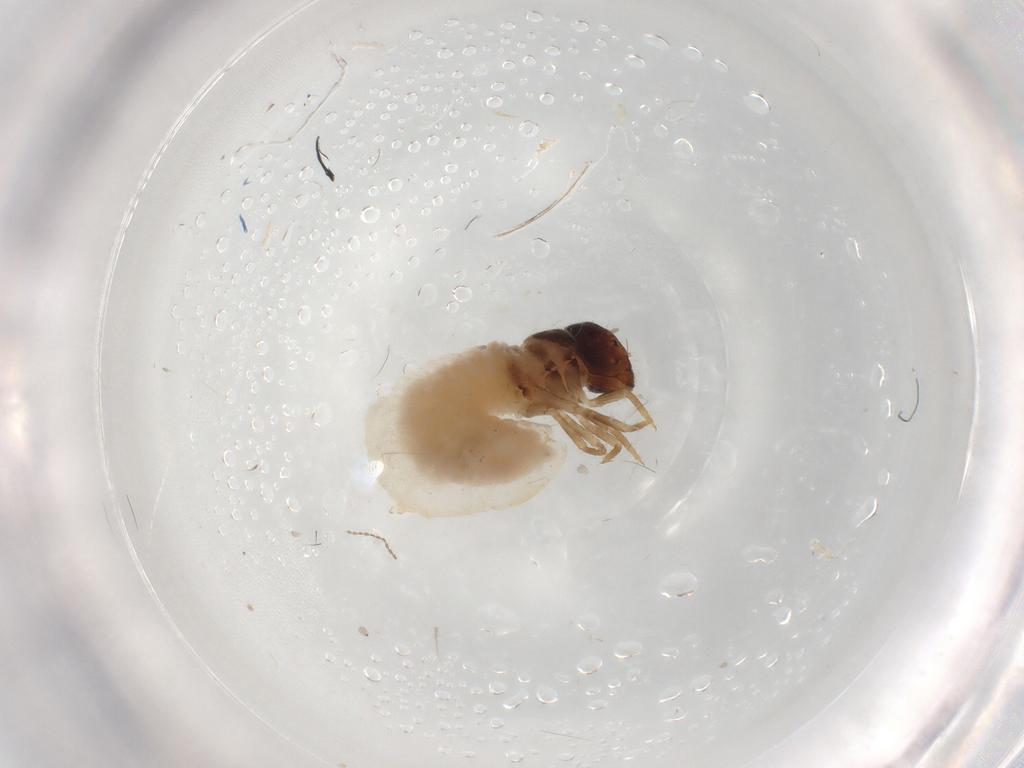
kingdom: Animalia
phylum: Arthropoda
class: Insecta
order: Coleoptera
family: Chrysomelidae
